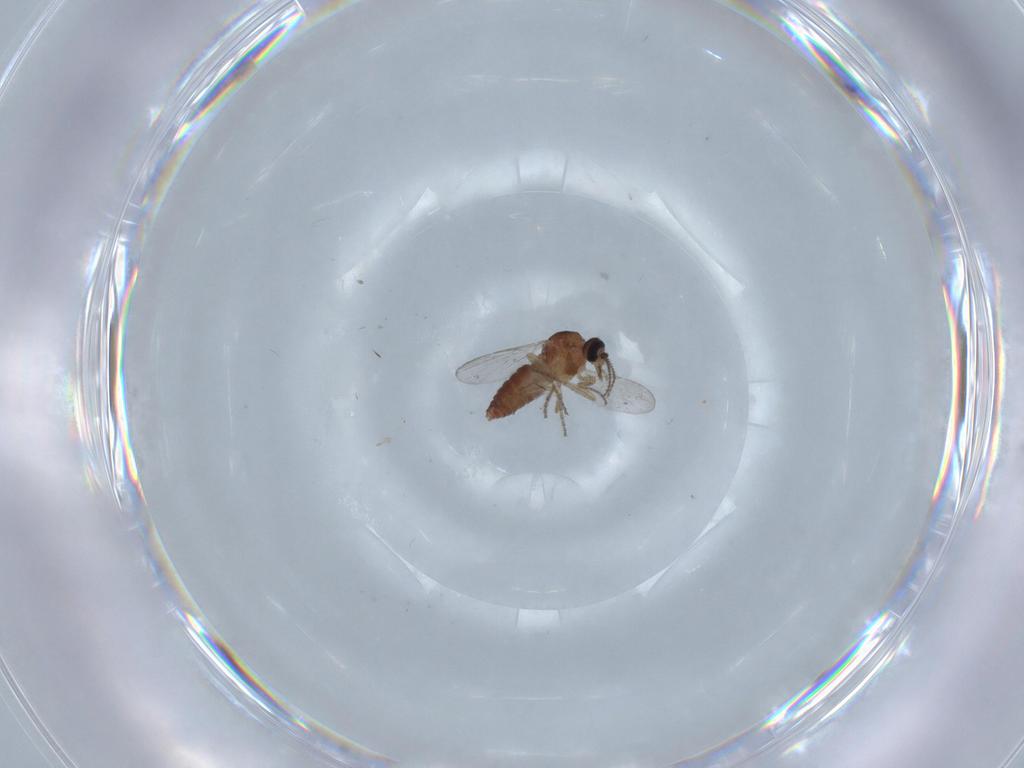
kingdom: Animalia
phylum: Arthropoda
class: Insecta
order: Diptera
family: Ceratopogonidae
